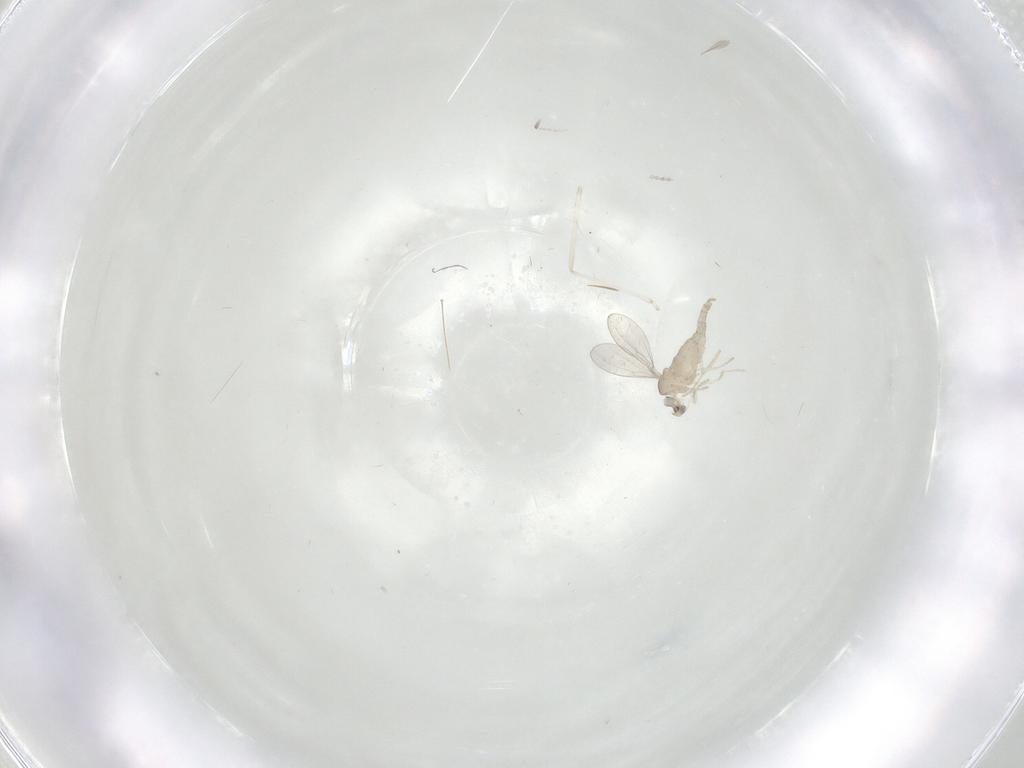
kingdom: Animalia
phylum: Arthropoda
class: Insecta
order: Diptera
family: Cecidomyiidae
